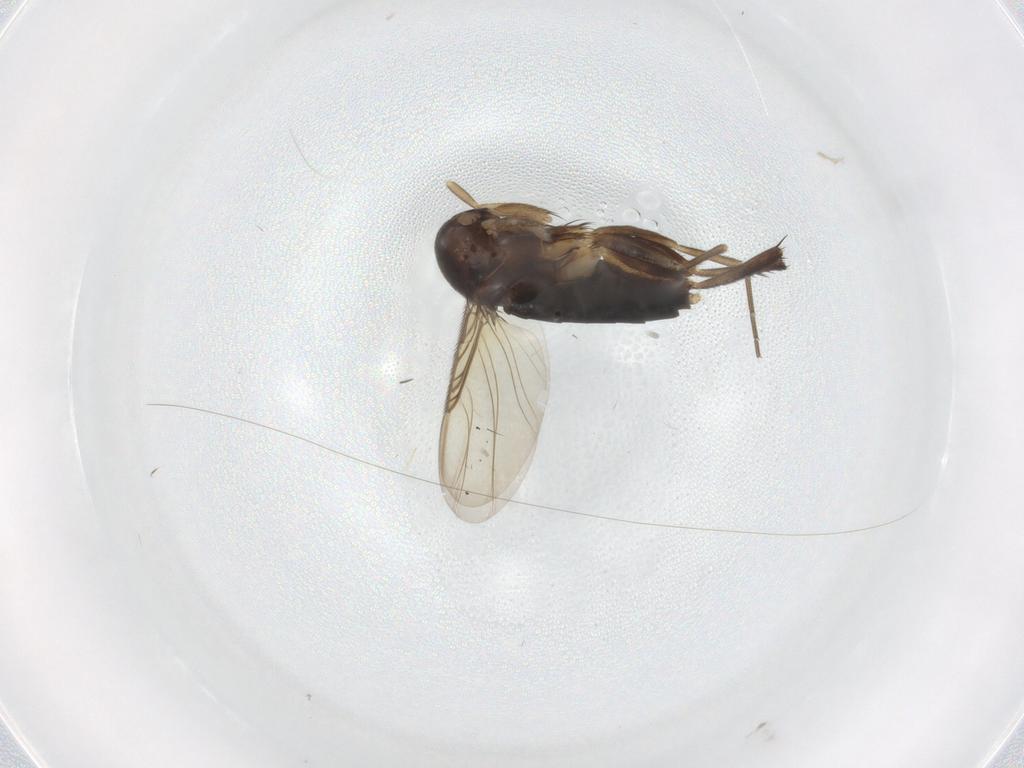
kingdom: Animalia
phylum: Arthropoda
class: Insecta
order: Diptera
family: Phoridae
